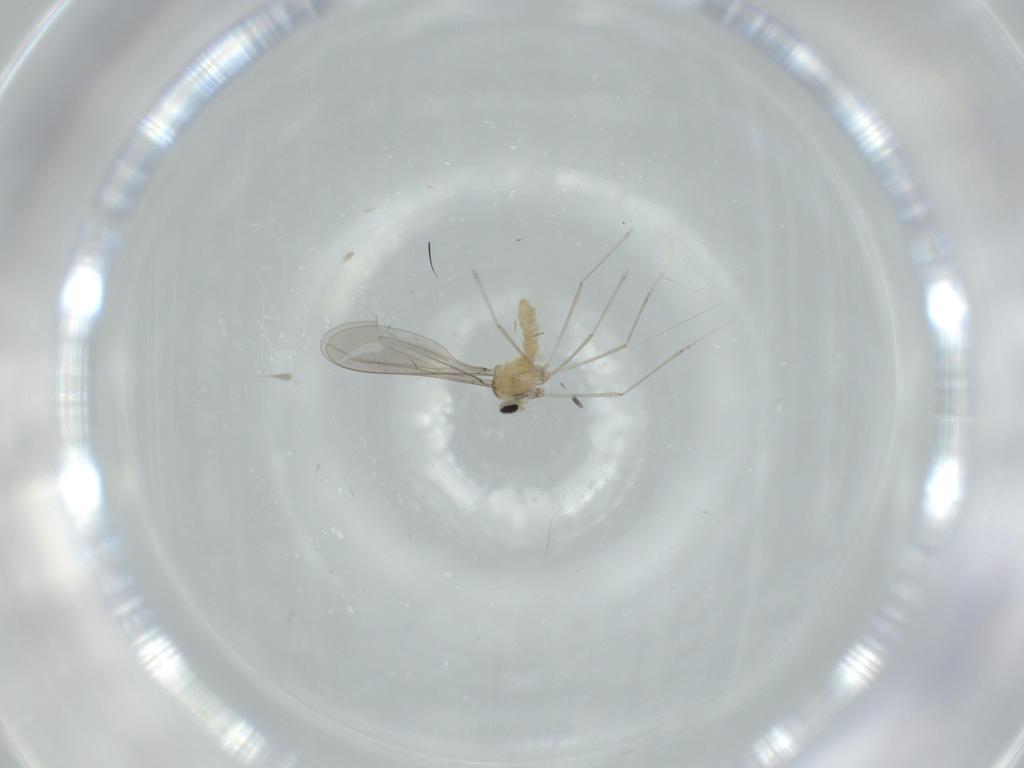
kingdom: Animalia
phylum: Arthropoda
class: Insecta
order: Diptera
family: Cecidomyiidae
